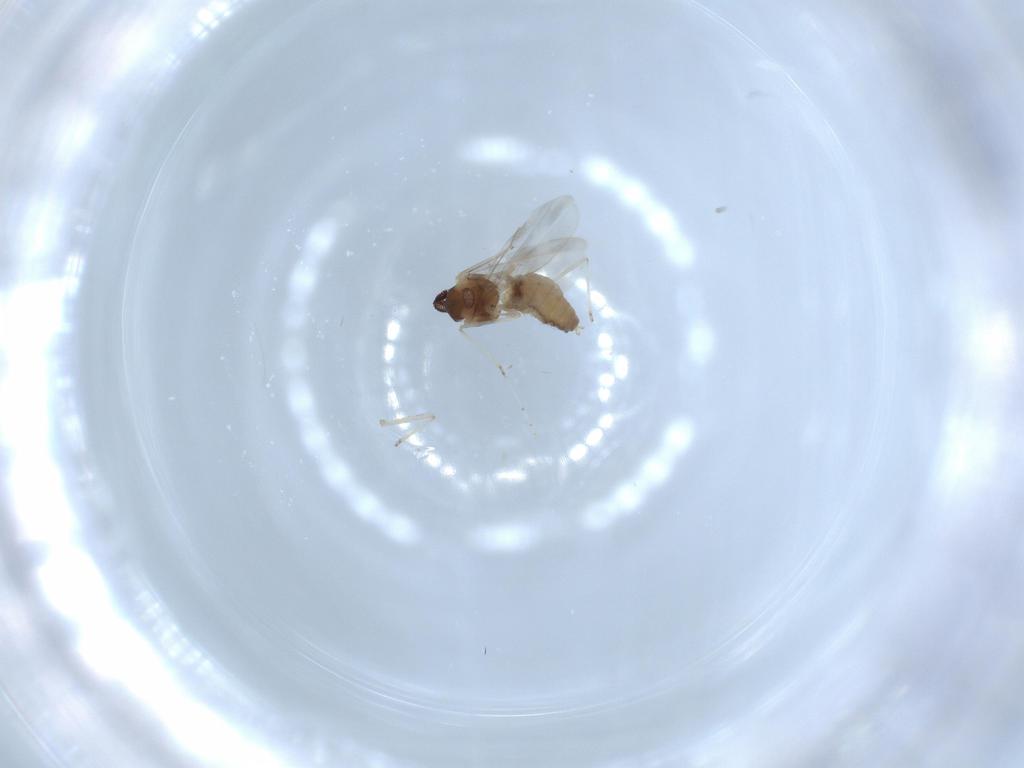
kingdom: Animalia
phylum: Arthropoda
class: Insecta
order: Diptera
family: Cecidomyiidae
